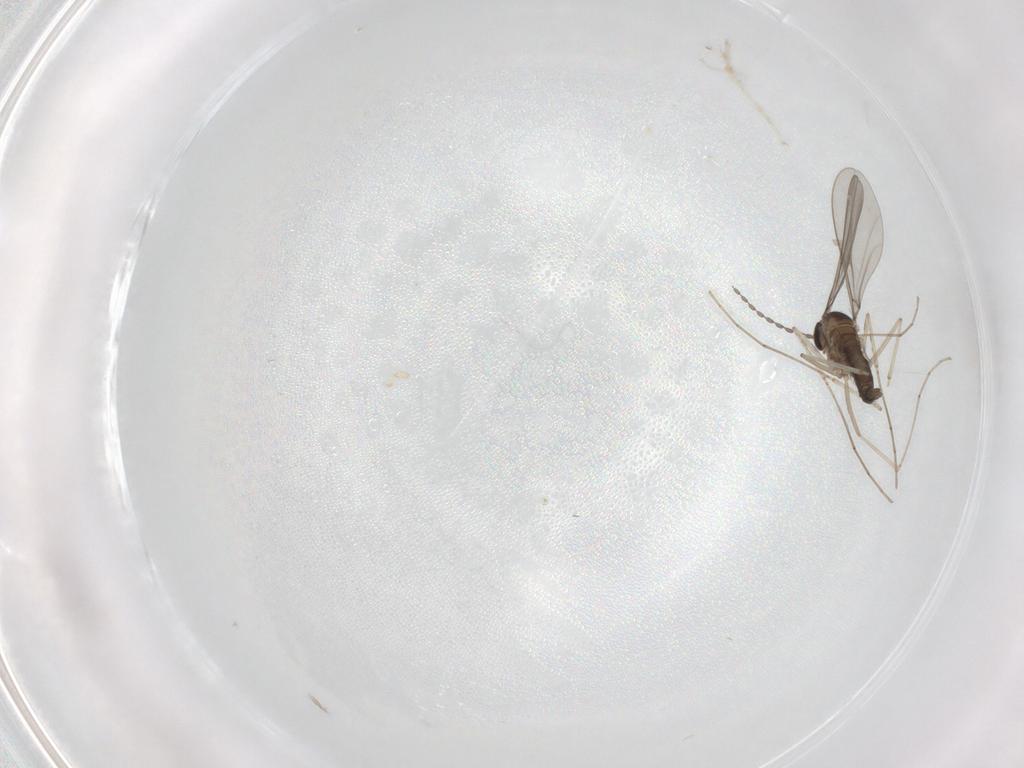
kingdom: Animalia
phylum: Arthropoda
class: Insecta
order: Diptera
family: Cecidomyiidae
